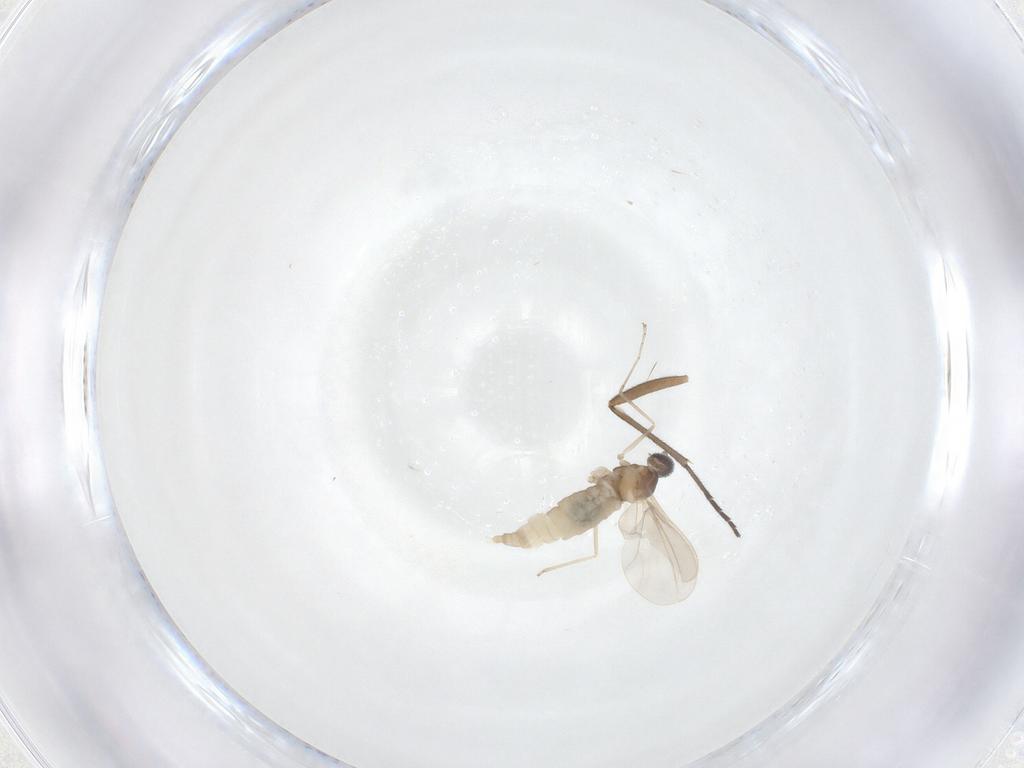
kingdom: Animalia
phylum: Arthropoda
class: Insecta
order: Diptera
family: Cecidomyiidae
